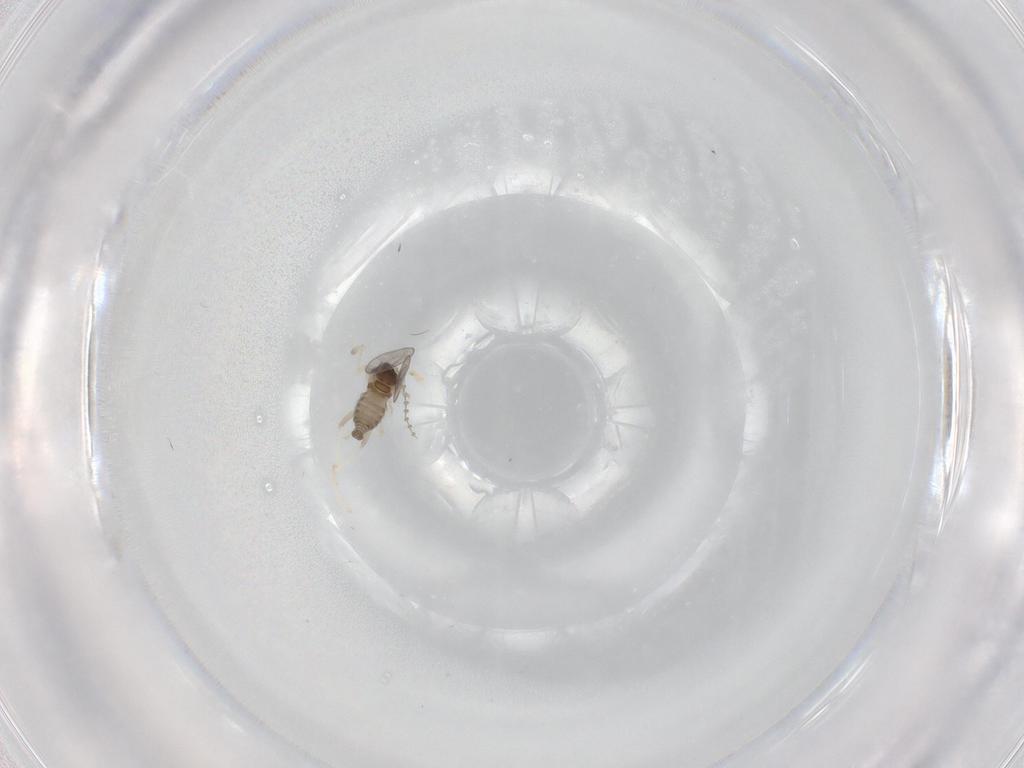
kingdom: Animalia
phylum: Arthropoda
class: Insecta
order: Diptera
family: Cecidomyiidae
